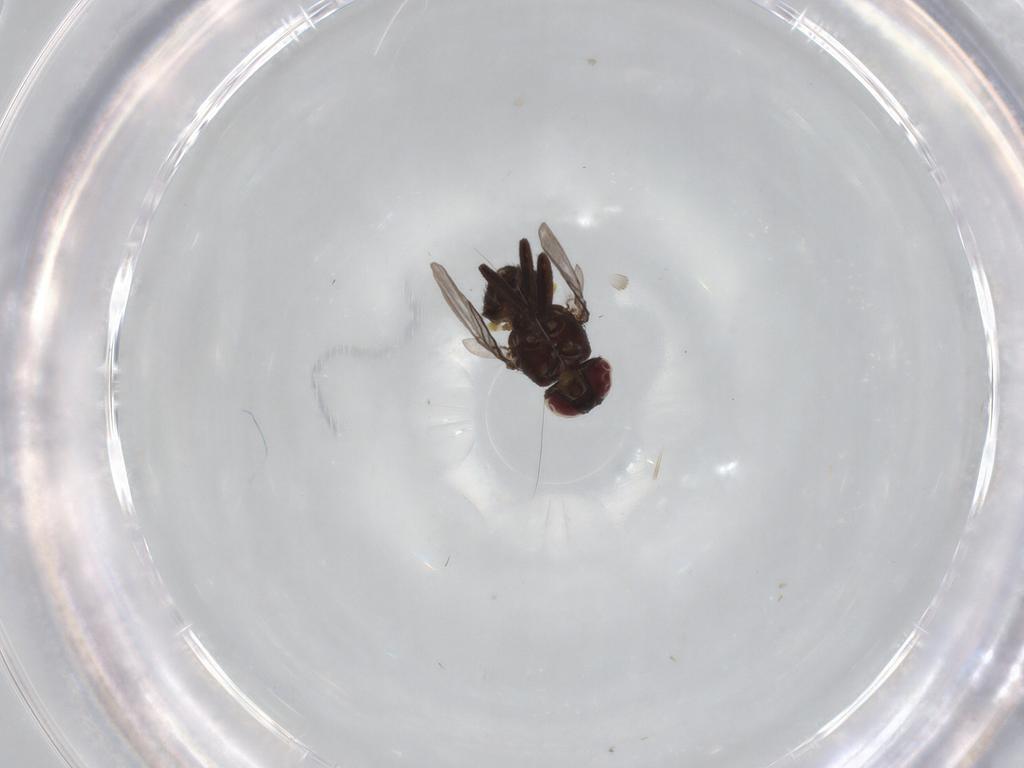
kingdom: Animalia
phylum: Arthropoda
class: Insecta
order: Diptera
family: Agromyzidae
